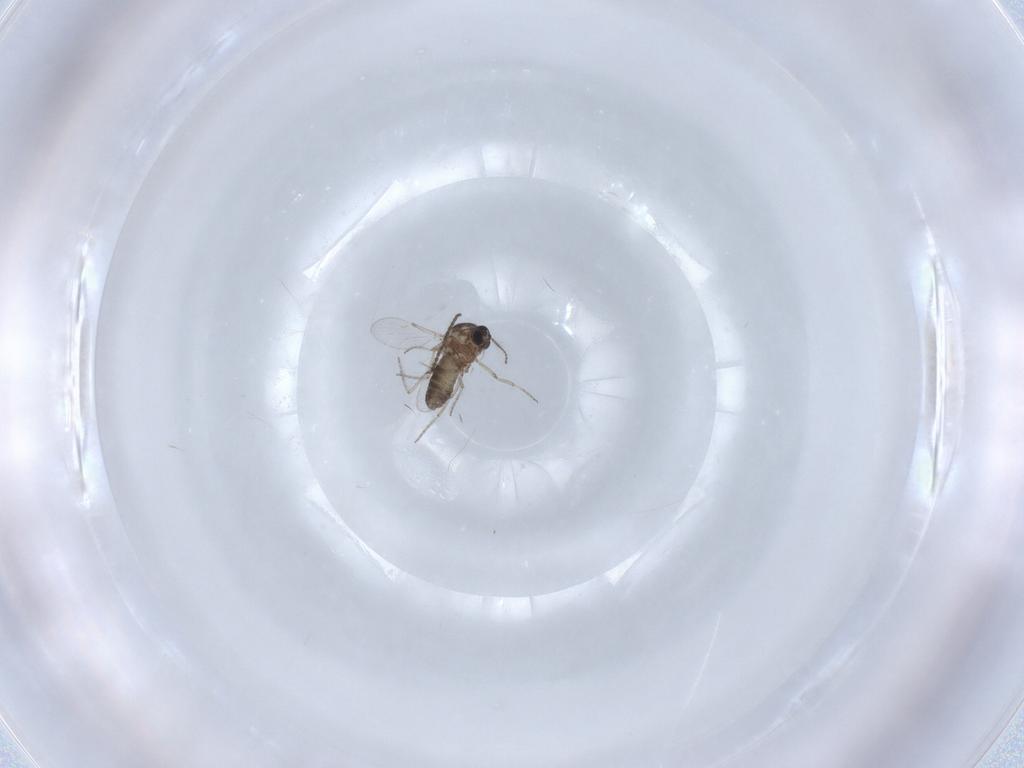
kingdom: Animalia
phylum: Arthropoda
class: Insecta
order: Diptera
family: Ceratopogonidae
